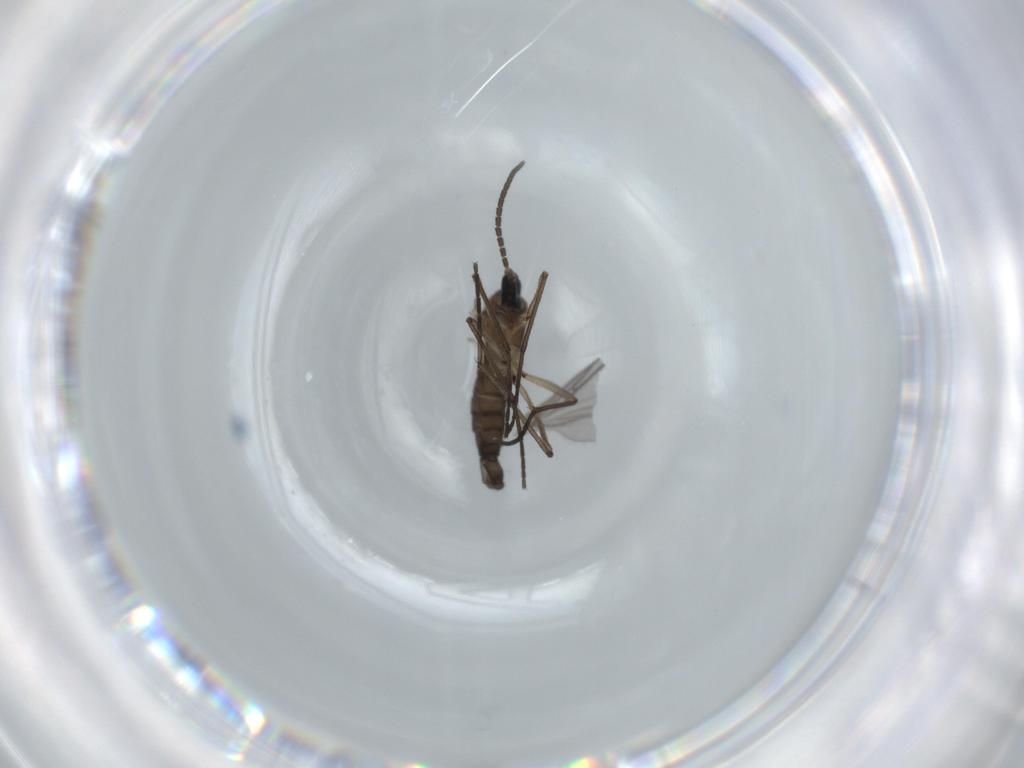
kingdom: Animalia
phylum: Arthropoda
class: Insecta
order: Diptera
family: Sciaridae
